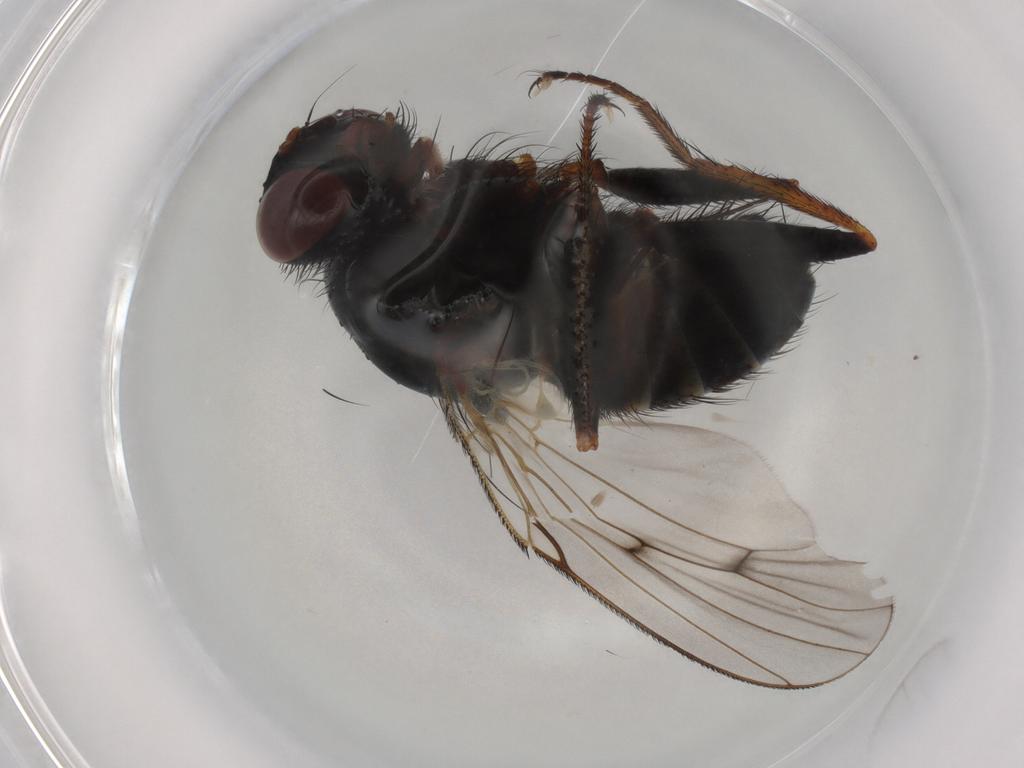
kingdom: Animalia
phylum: Arthropoda
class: Insecta
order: Diptera
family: Muscidae
